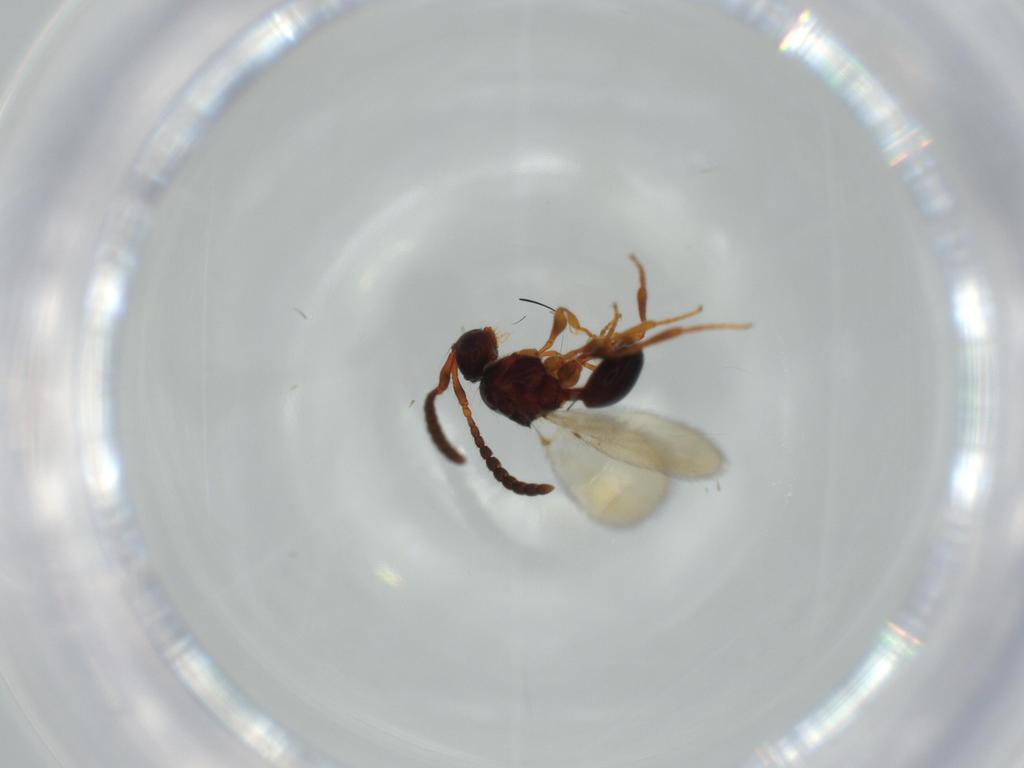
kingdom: Animalia
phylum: Arthropoda
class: Insecta
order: Hymenoptera
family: Diapriidae
